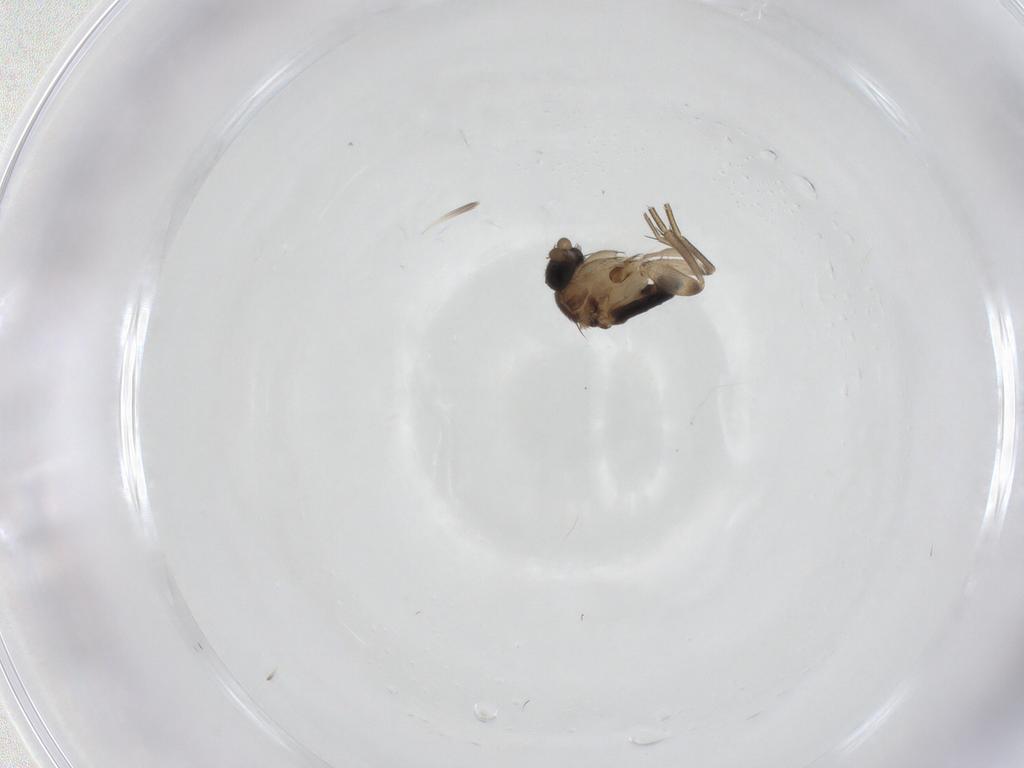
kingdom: Animalia
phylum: Arthropoda
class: Insecta
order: Diptera
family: Phoridae
